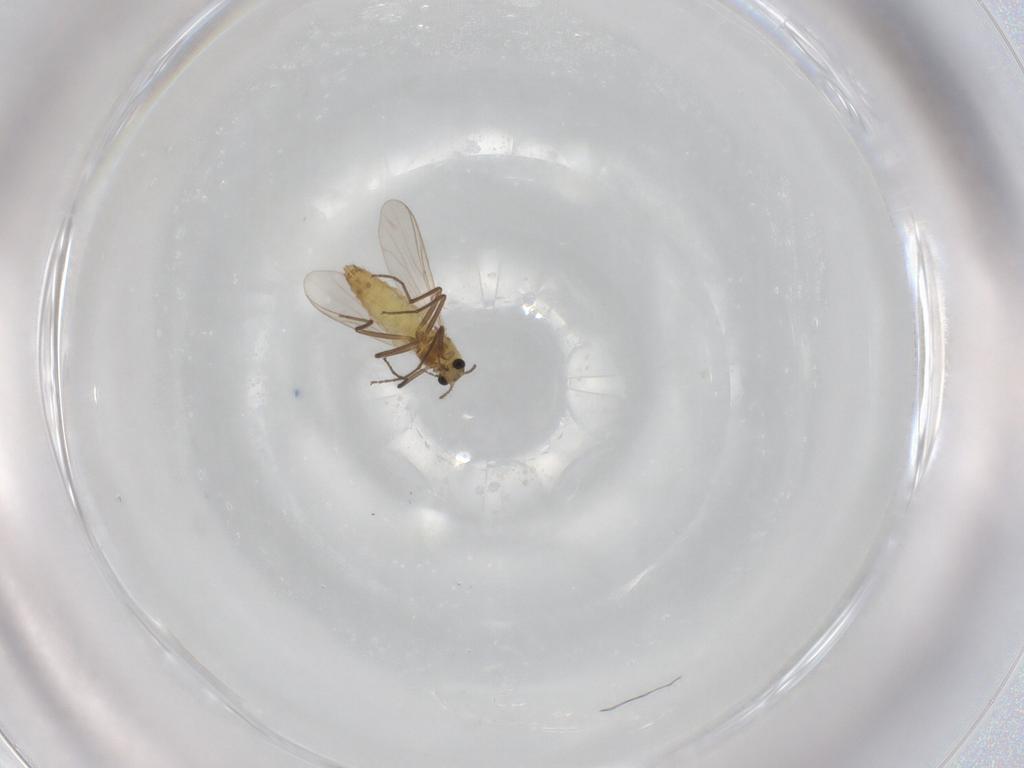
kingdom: Animalia
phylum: Arthropoda
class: Insecta
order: Diptera
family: Chironomidae
